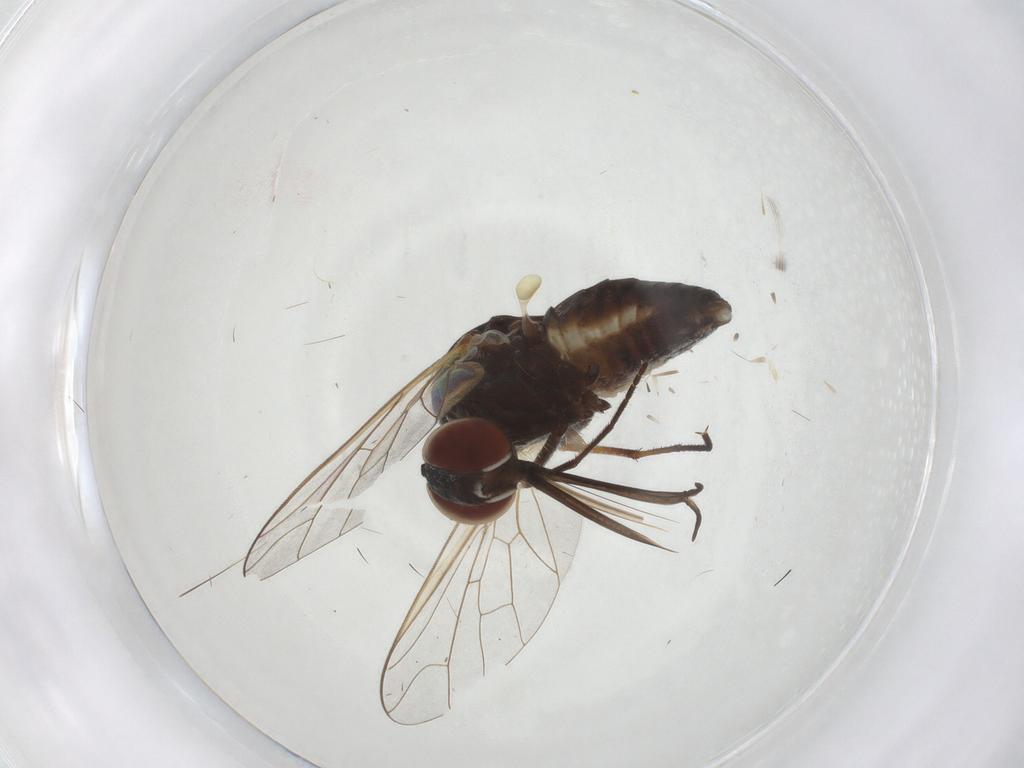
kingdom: Animalia
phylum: Arthropoda
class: Insecta
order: Diptera
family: Bombyliidae
